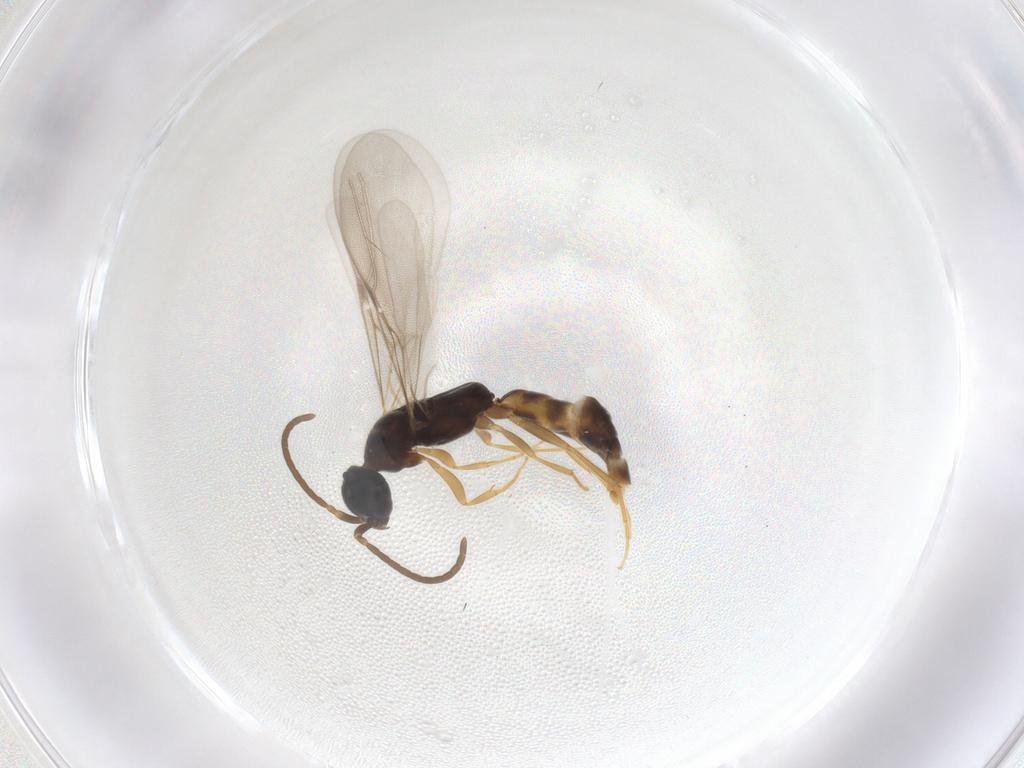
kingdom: Animalia
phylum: Arthropoda
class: Insecta
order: Hymenoptera
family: Bethylidae
